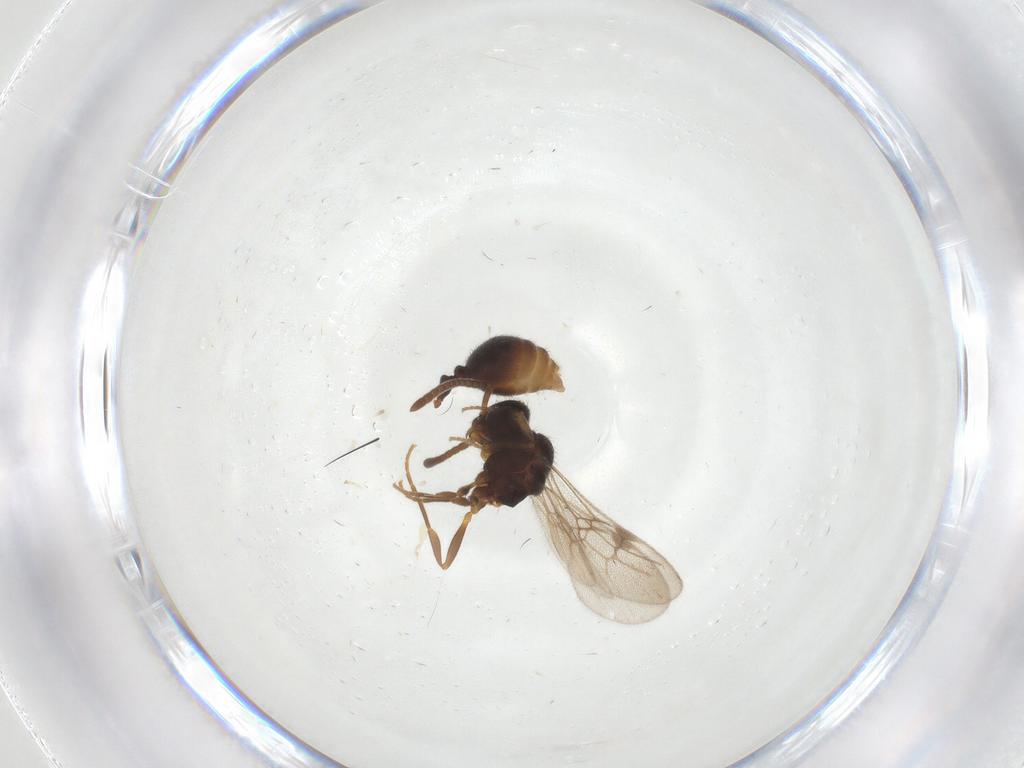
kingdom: Animalia
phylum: Arthropoda
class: Insecta
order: Hymenoptera
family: Formicidae
